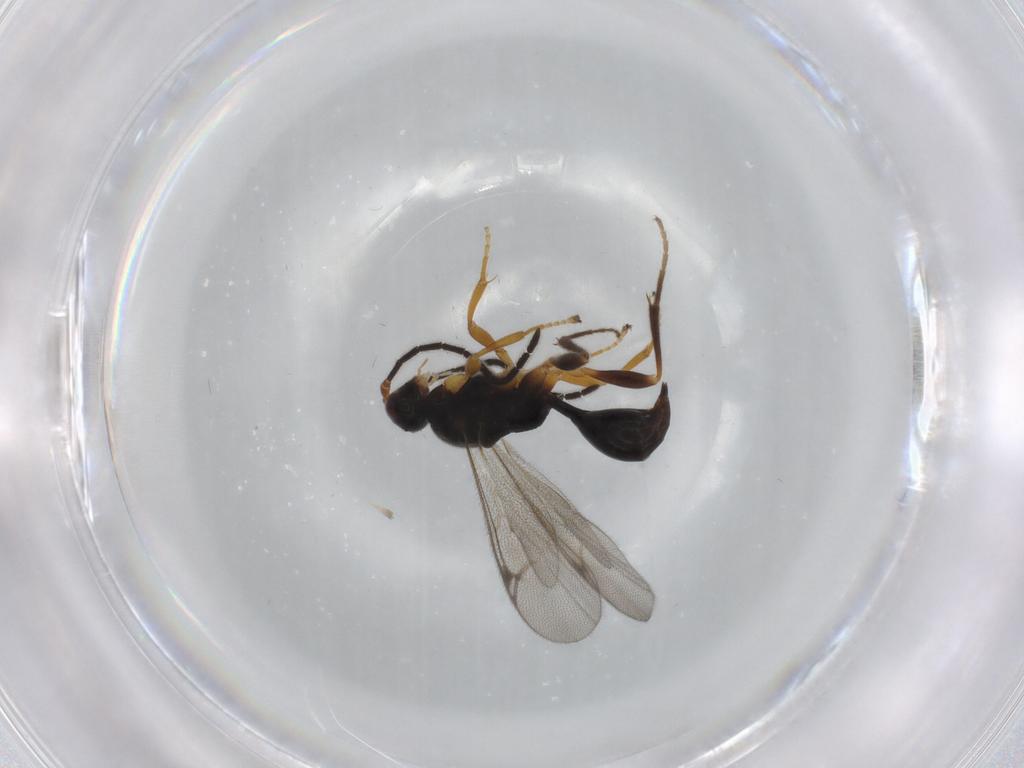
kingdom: Animalia
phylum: Arthropoda
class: Insecta
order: Hymenoptera
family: Proctotrupidae
